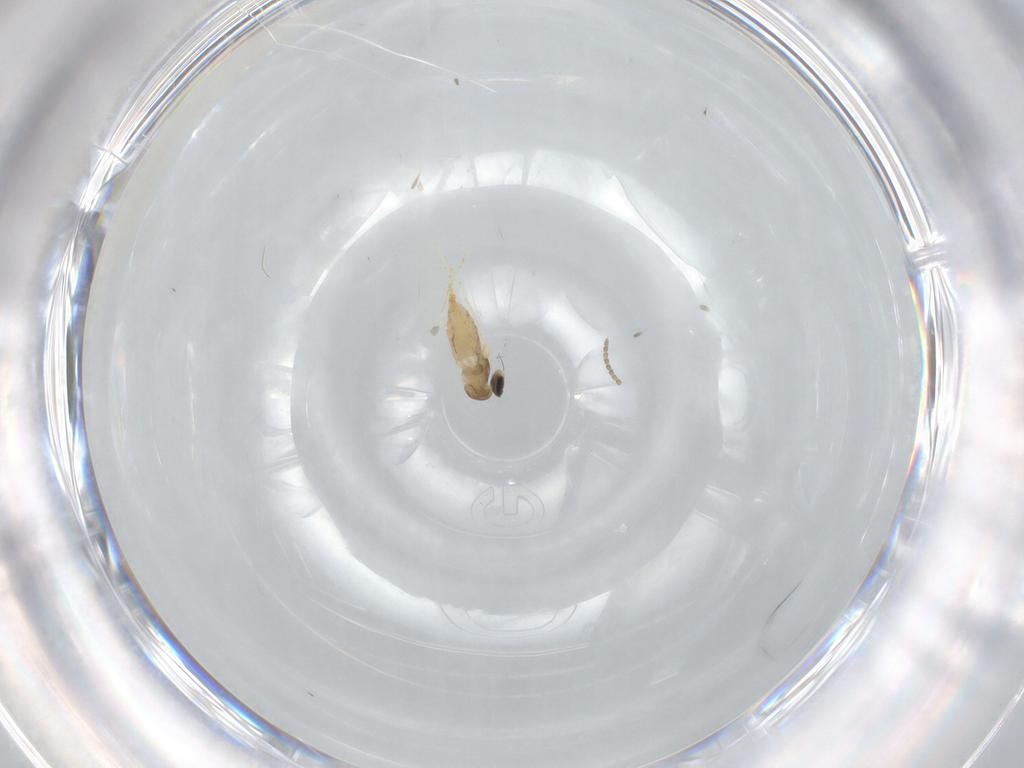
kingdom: Animalia
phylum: Arthropoda
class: Insecta
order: Diptera
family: Cecidomyiidae
